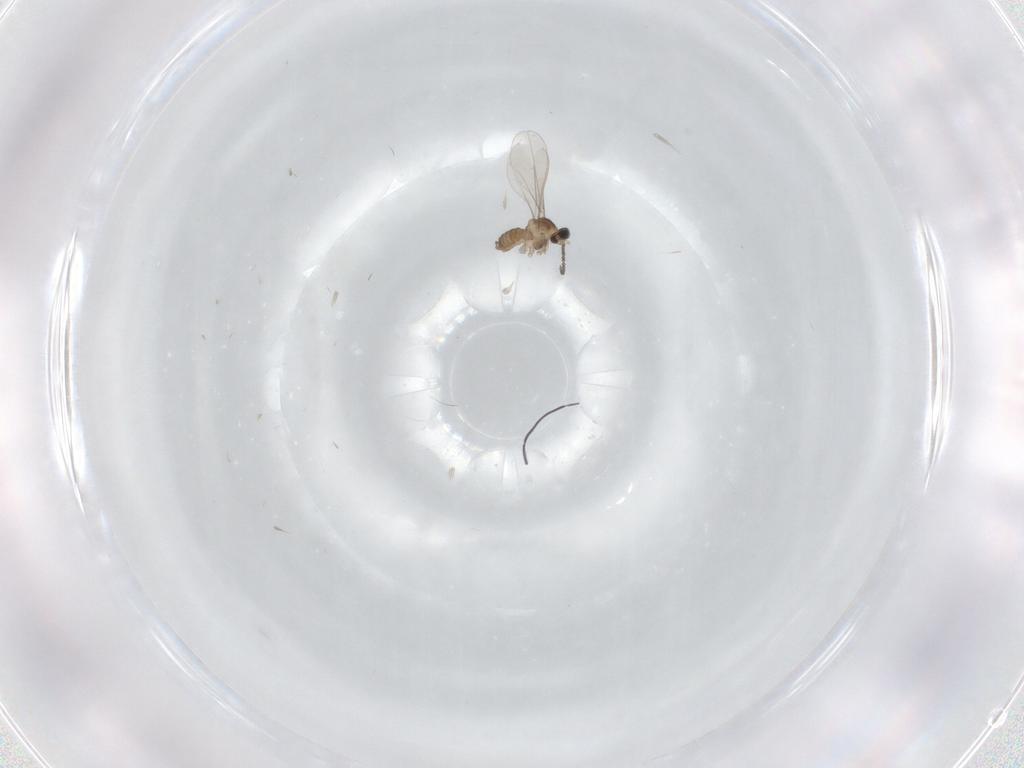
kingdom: Animalia
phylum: Arthropoda
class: Insecta
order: Diptera
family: Cecidomyiidae
